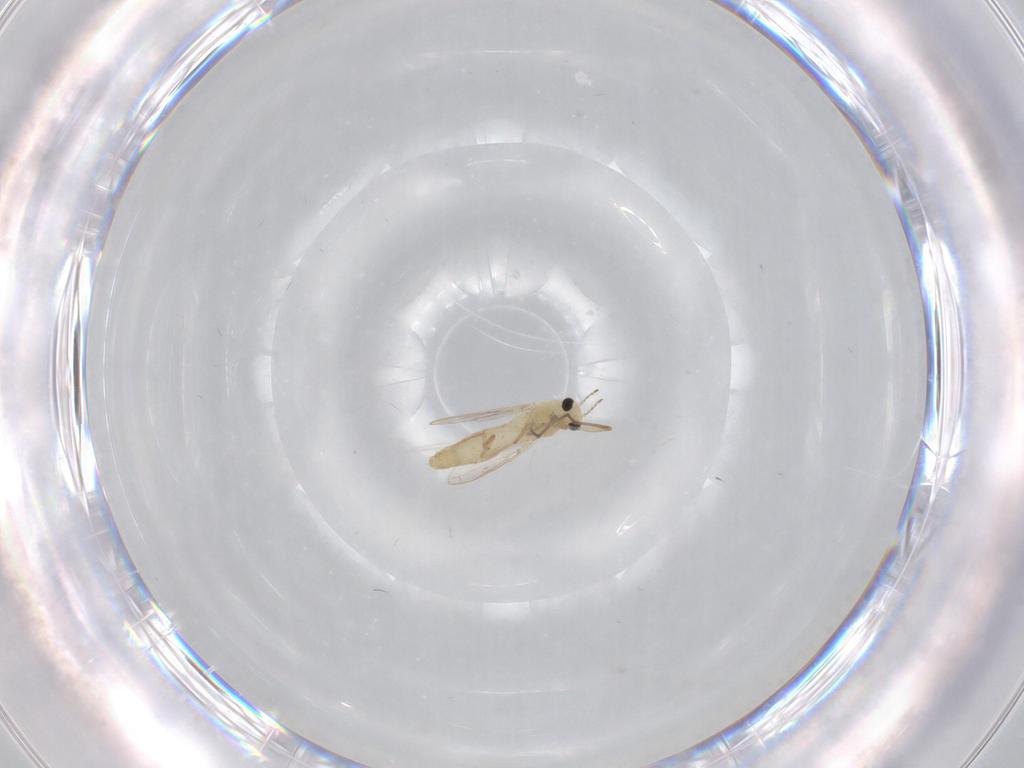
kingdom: Animalia
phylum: Arthropoda
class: Insecta
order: Diptera
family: Chironomidae
